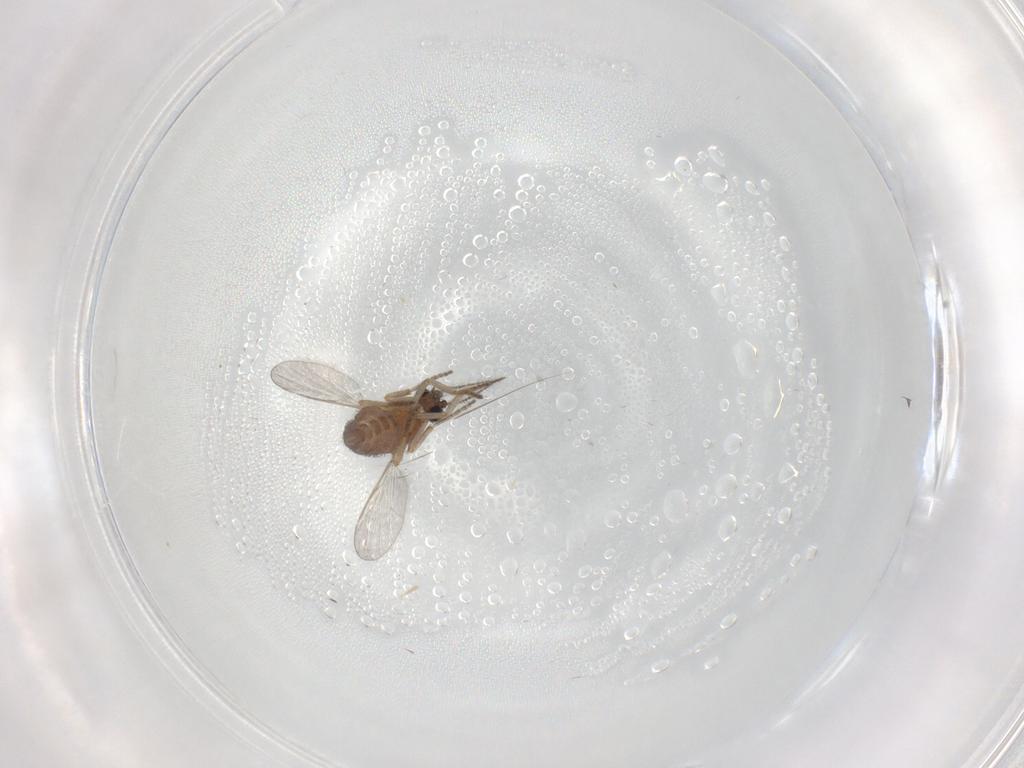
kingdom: Animalia
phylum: Arthropoda
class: Insecta
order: Diptera
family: Ceratopogonidae
